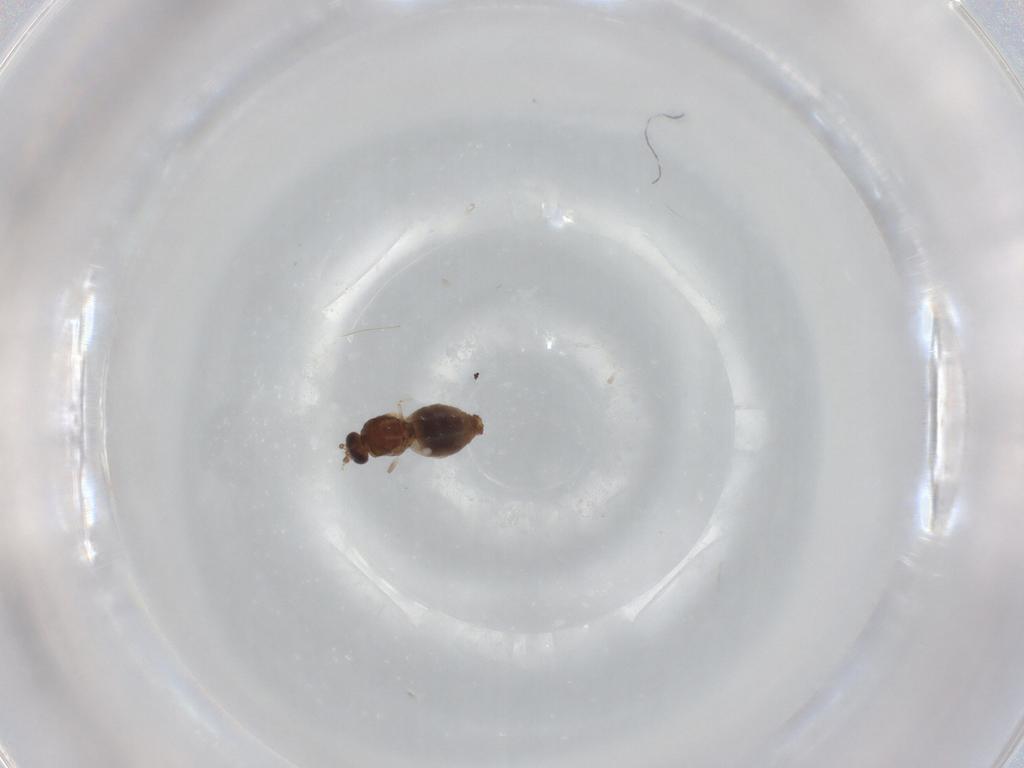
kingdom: Animalia
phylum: Arthropoda
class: Insecta
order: Diptera
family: Ceratopogonidae
